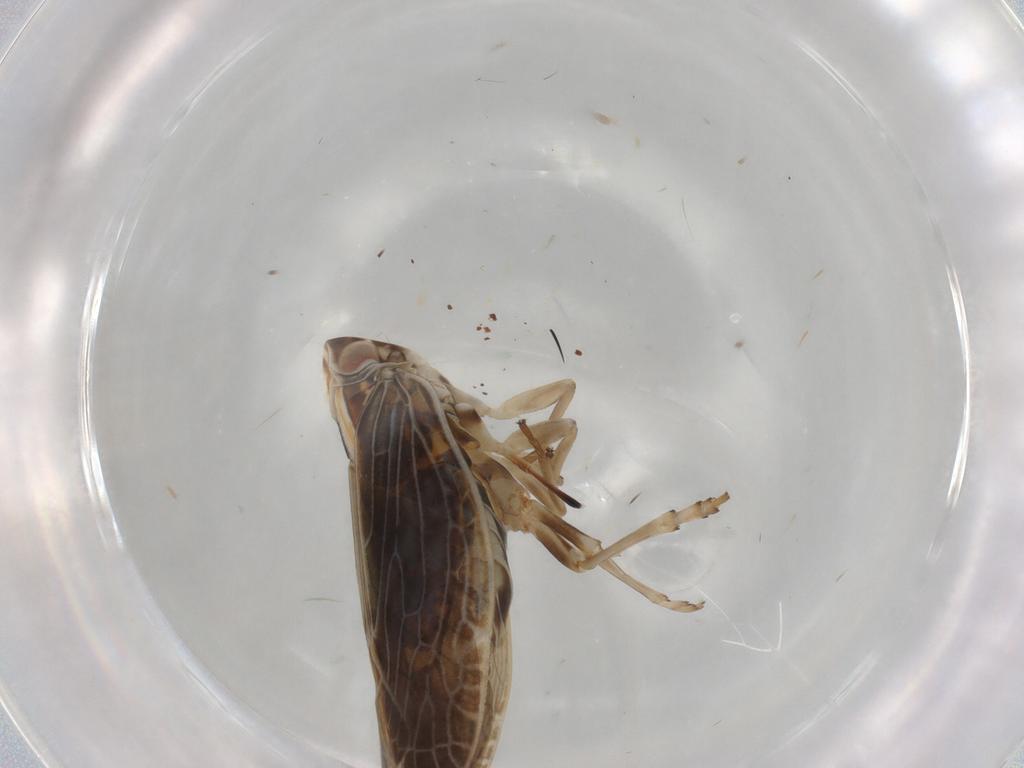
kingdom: Animalia
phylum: Arthropoda
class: Insecta
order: Hemiptera
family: Achilidae
